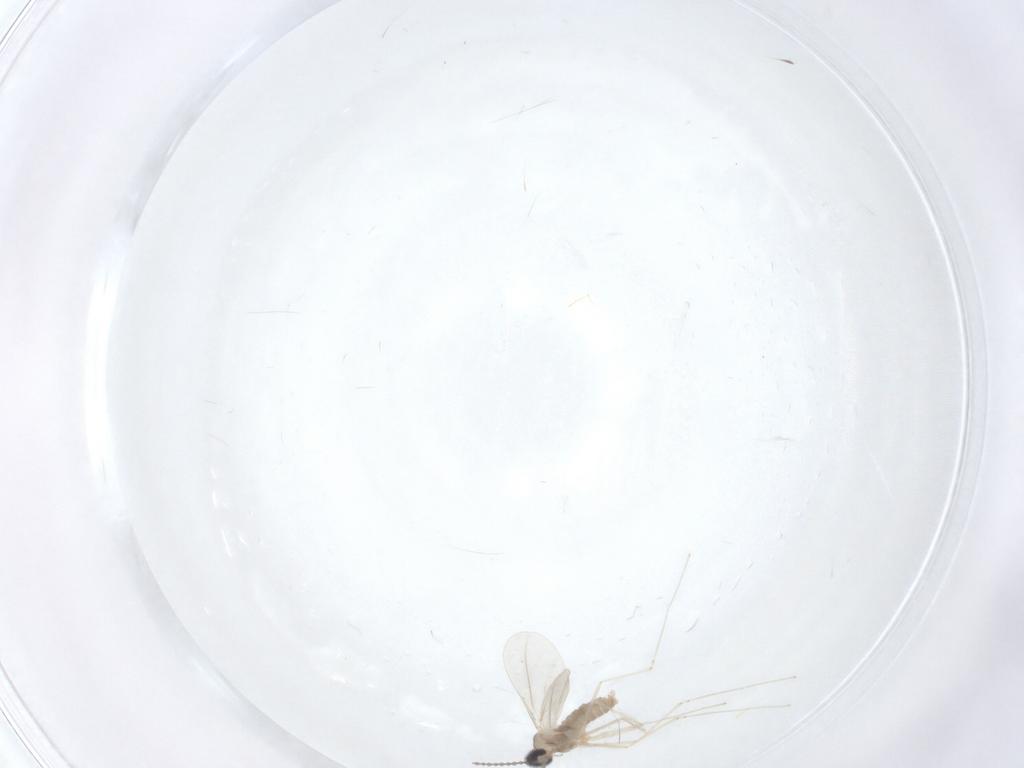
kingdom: Animalia
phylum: Arthropoda
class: Insecta
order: Diptera
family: Cecidomyiidae
